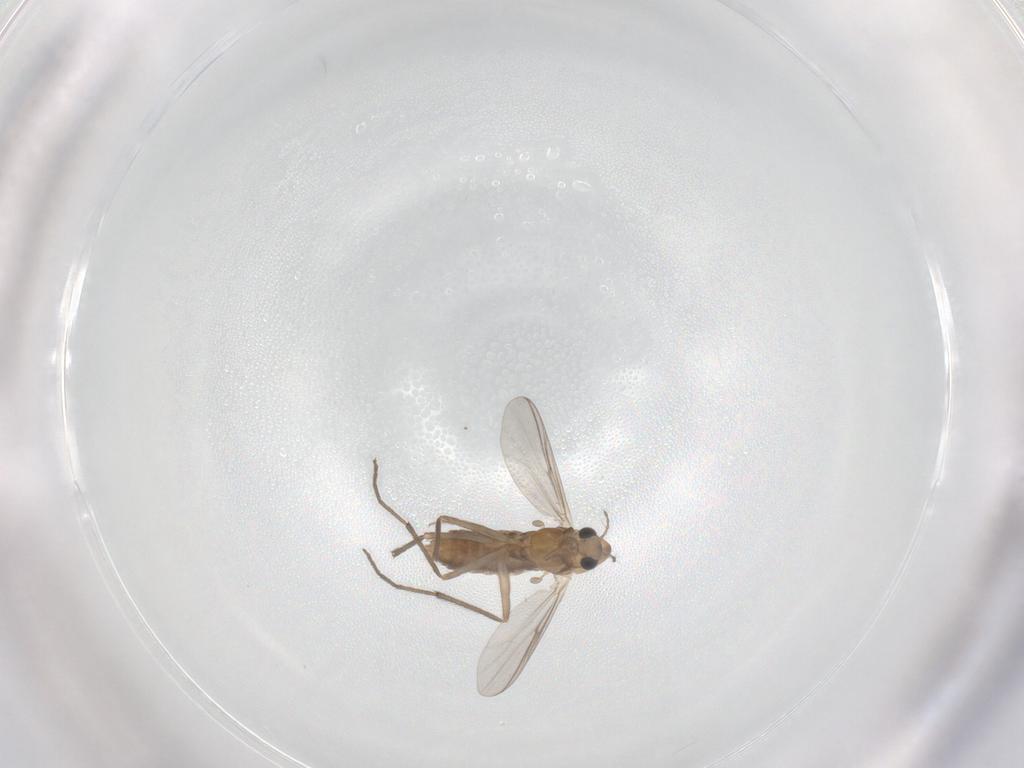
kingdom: Animalia
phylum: Arthropoda
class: Insecta
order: Diptera
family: Chironomidae
